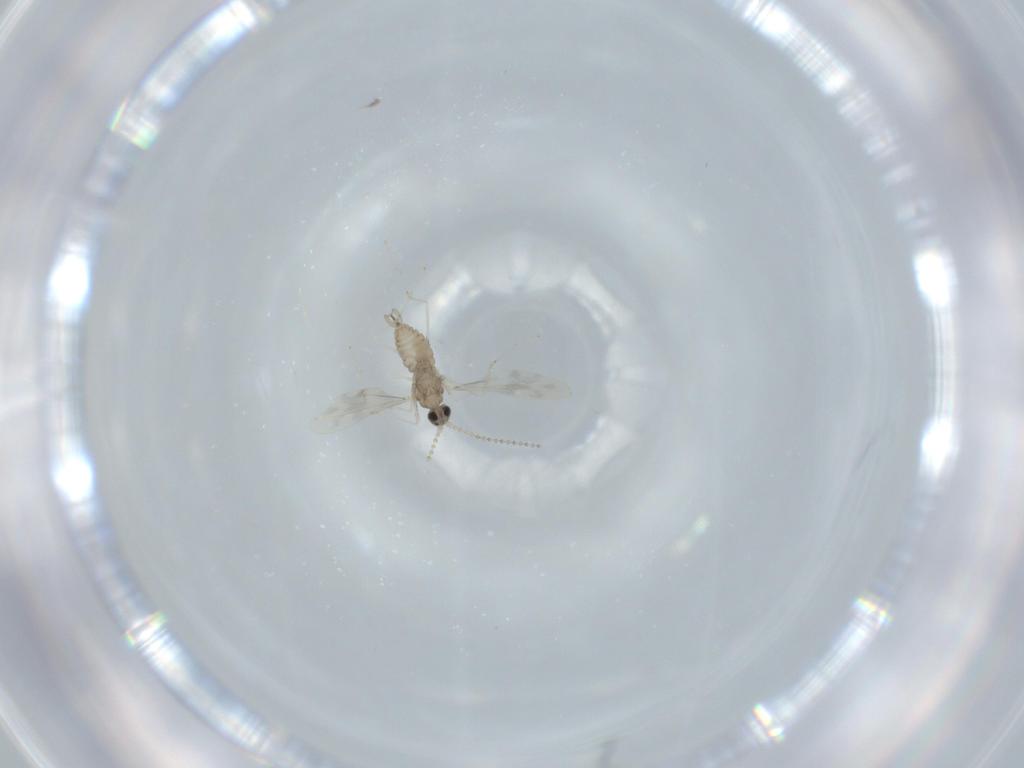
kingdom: Animalia
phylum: Arthropoda
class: Insecta
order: Diptera
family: Cecidomyiidae
